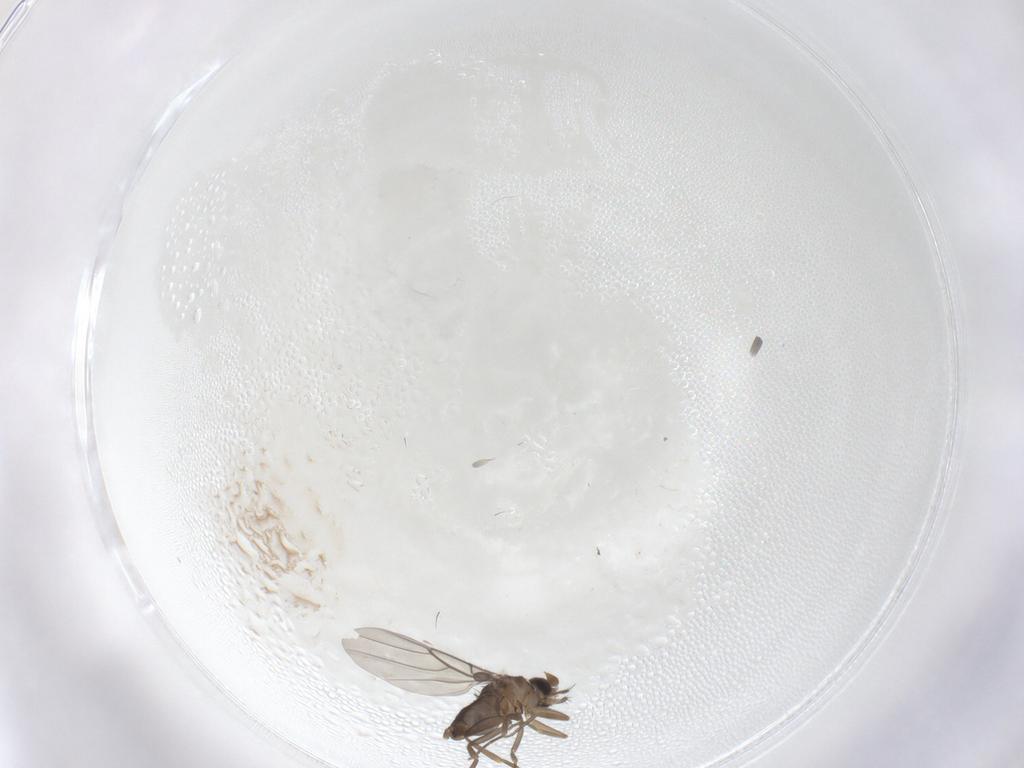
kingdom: Animalia
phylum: Arthropoda
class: Insecta
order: Diptera
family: Phoridae
